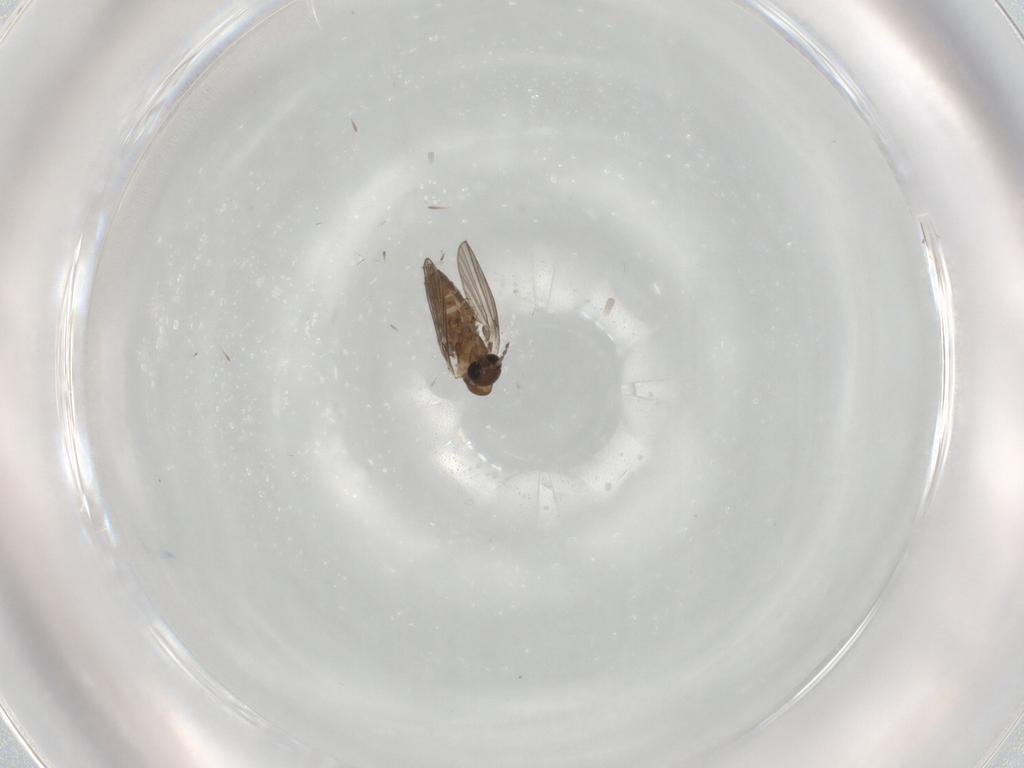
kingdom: Animalia
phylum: Arthropoda
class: Insecta
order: Diptera
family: Psychodidae
